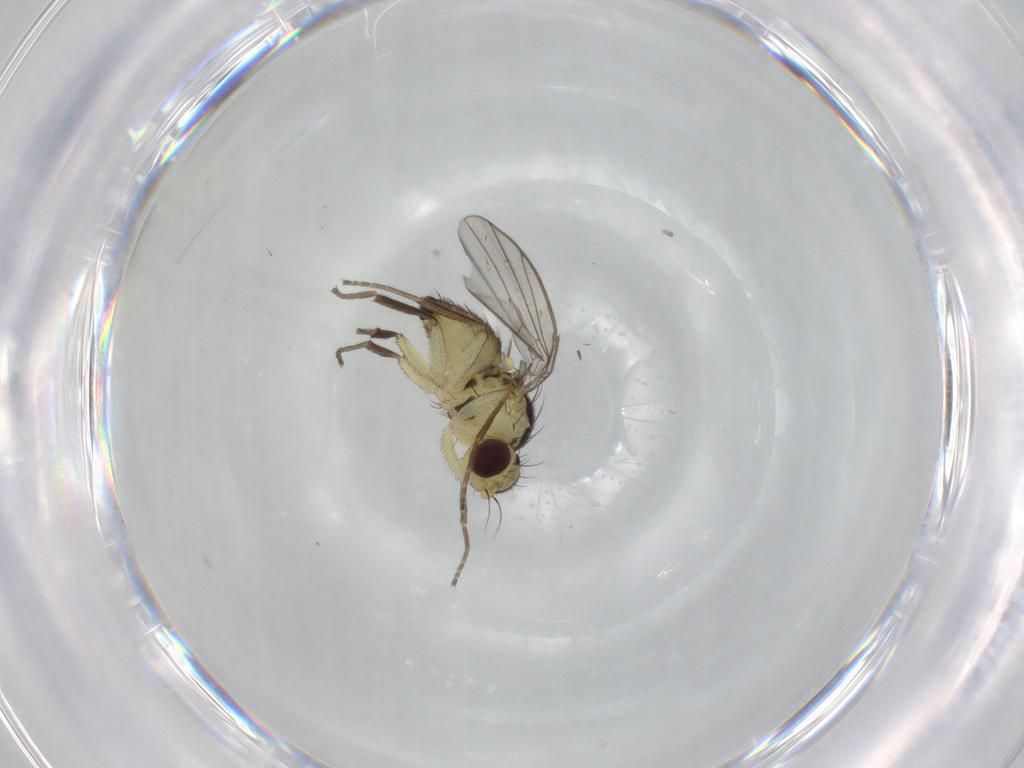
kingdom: Animalia
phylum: Arthropoda
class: Insecta
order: Diptera
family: Agromyzidae
